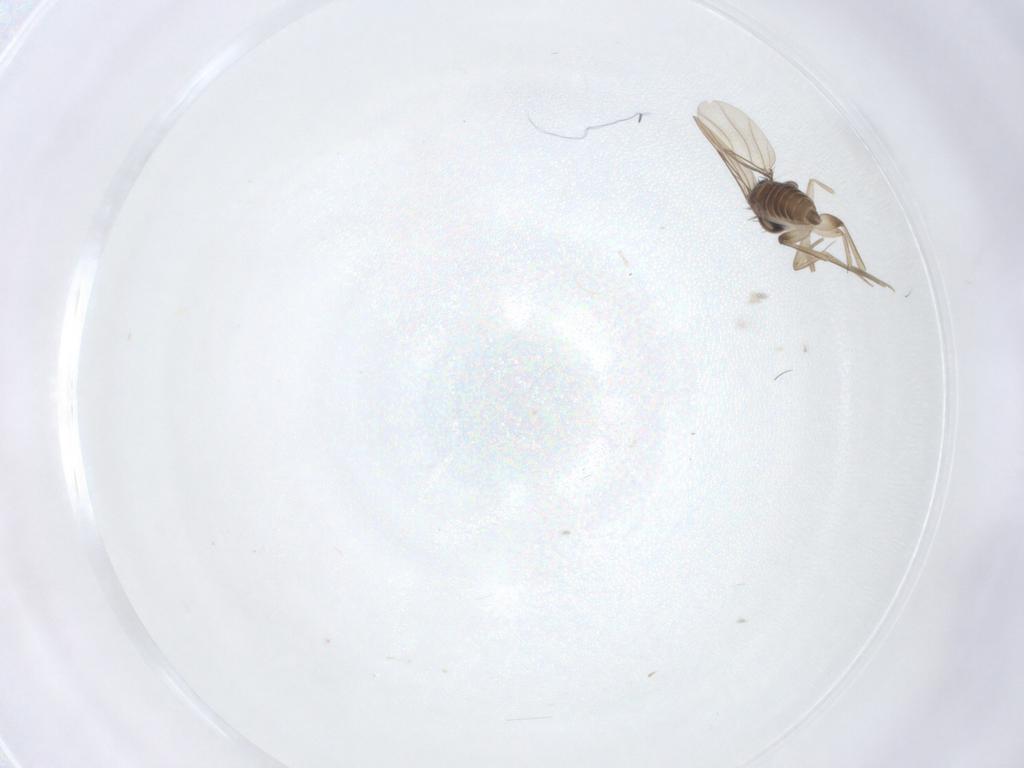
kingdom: Animalia
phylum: Arthropoda
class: Insecta
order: Diptera
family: Phoridae
